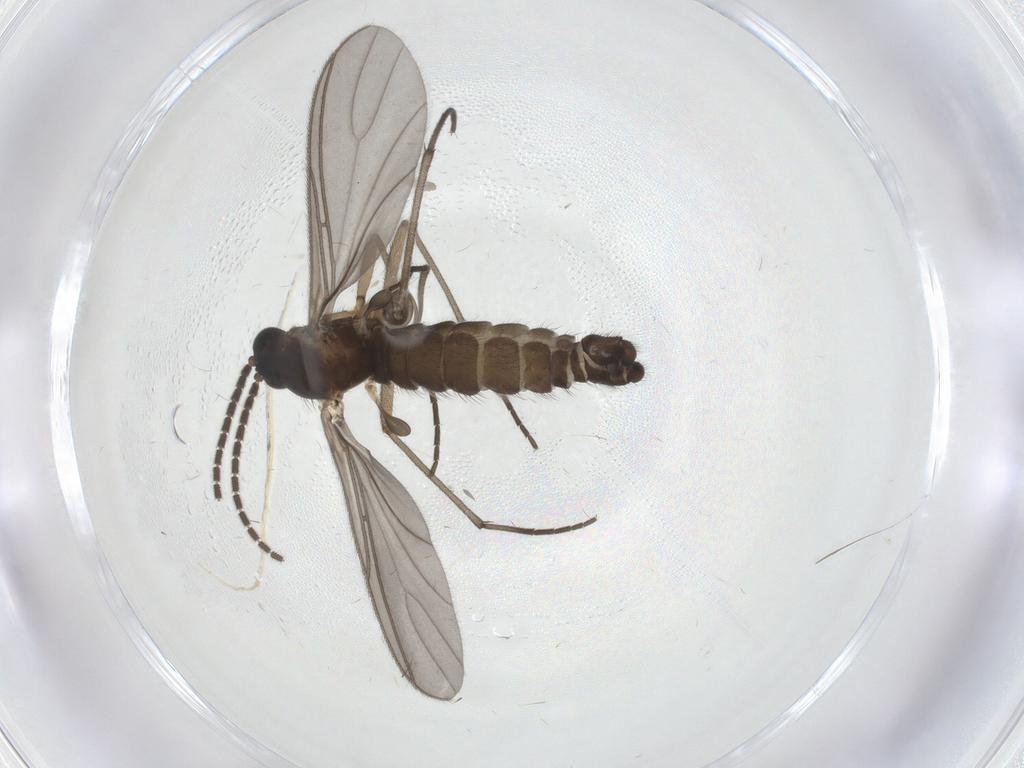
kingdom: Animalia
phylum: Arthropoda
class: Insecta
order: Diptera
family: Sciaridae
